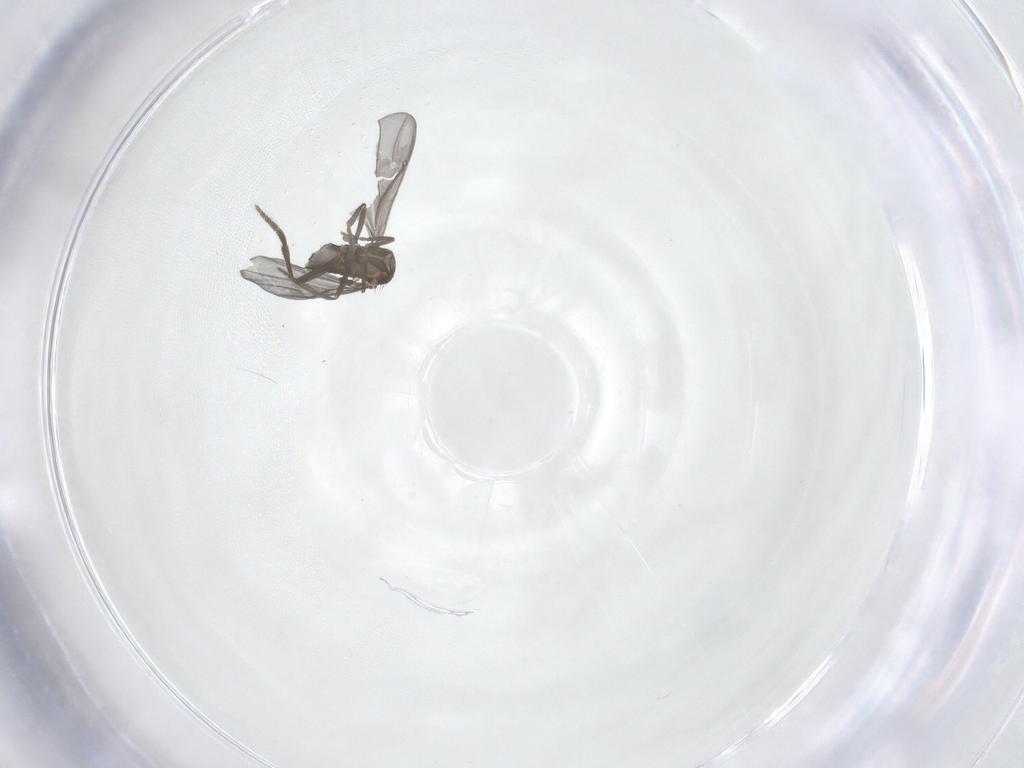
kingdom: Animalia
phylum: Arthropoda
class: Insecta
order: Diptera
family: Phoridae
